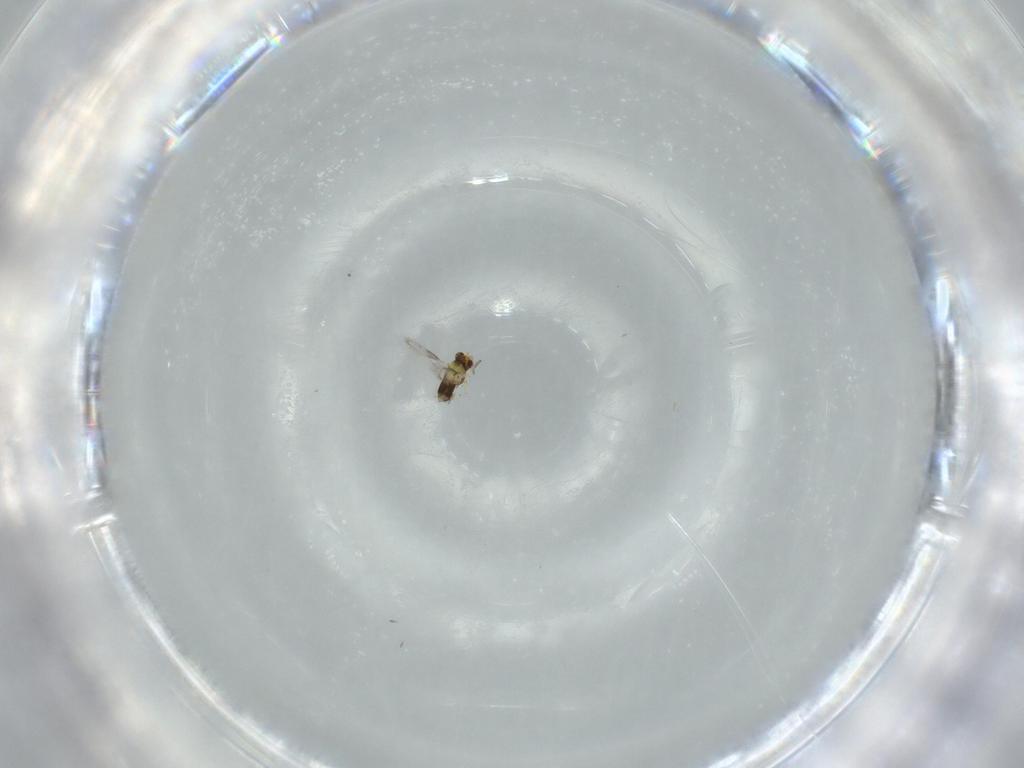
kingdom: Animalia
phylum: Arthropoda
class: Insecta
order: Hymenoptera
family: Aphelinidae
